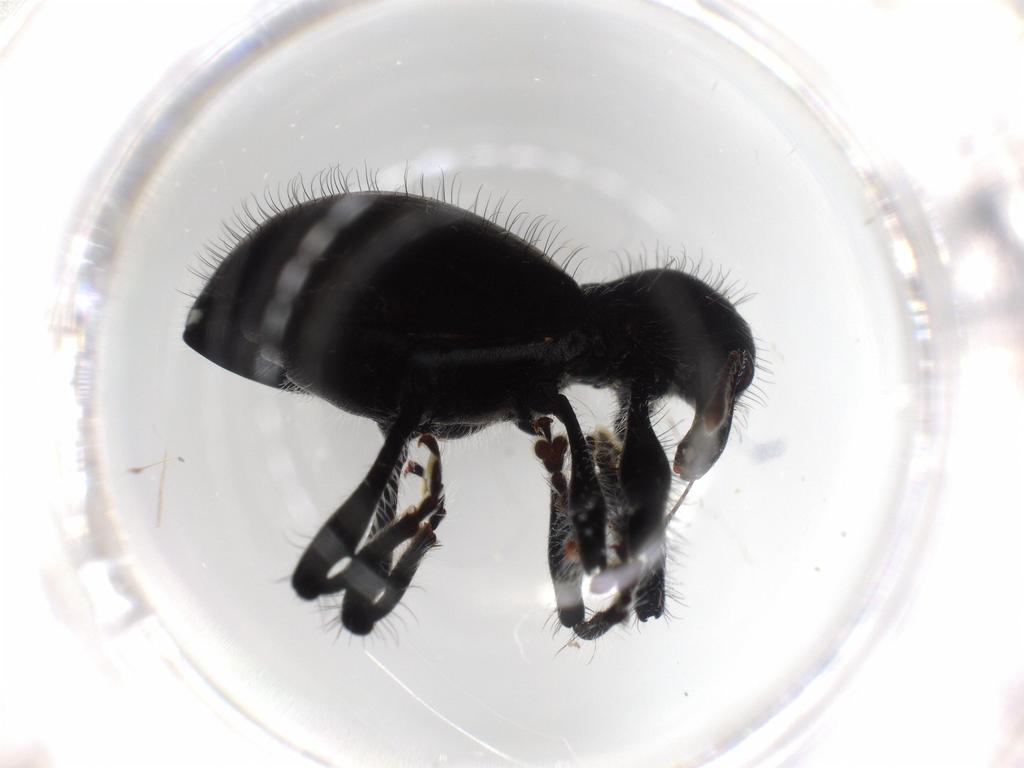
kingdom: Animalia
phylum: Arthropoda
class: Insecta
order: Coleoptera
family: Curculionidae
